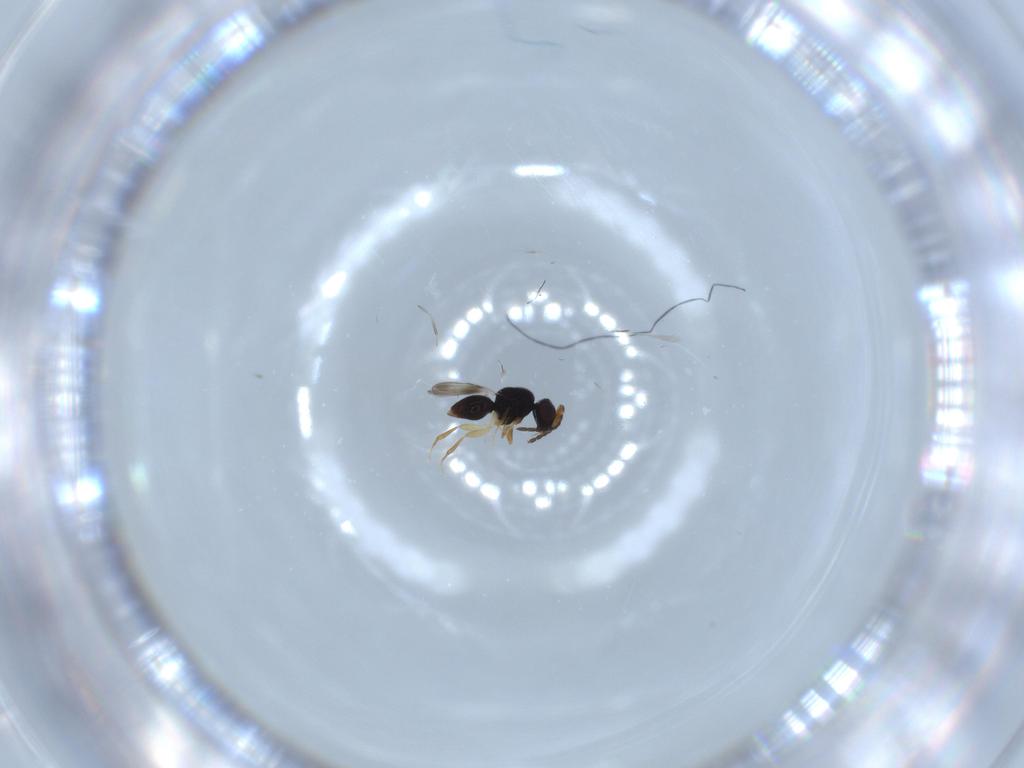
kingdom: Animalia
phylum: Arthropoda
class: Insecta
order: Hymenoptera
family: Ceraphronidae
